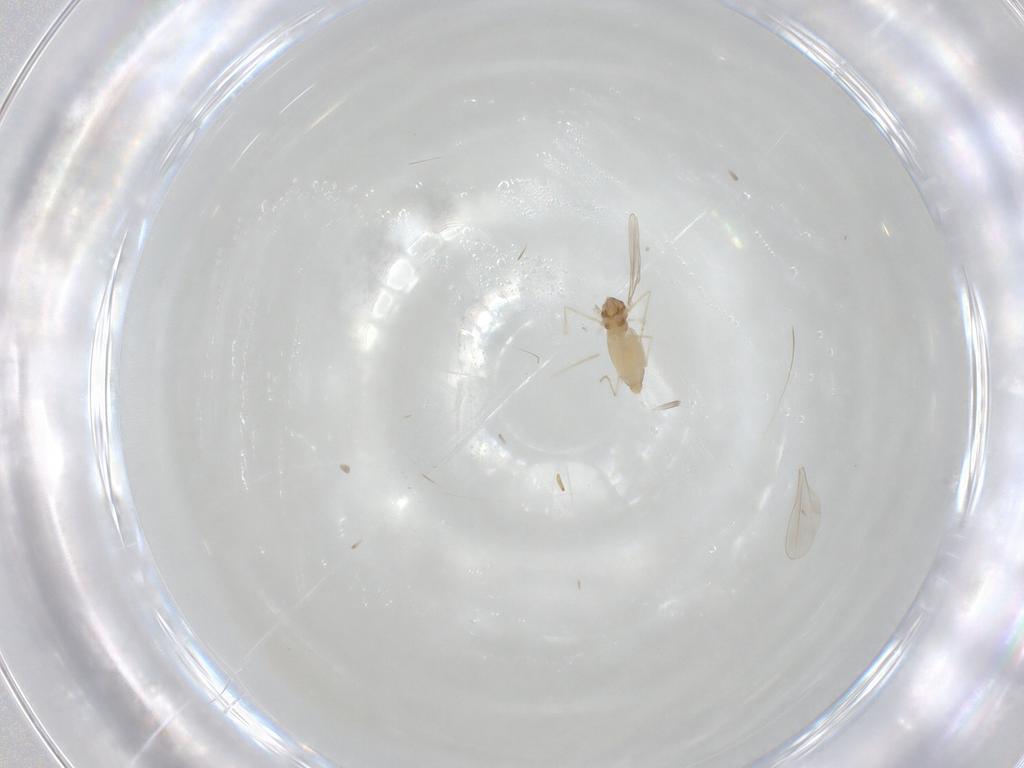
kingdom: Animalia
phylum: Arthropoda
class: Insecta
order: Diptera
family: Cecidomyiidae
